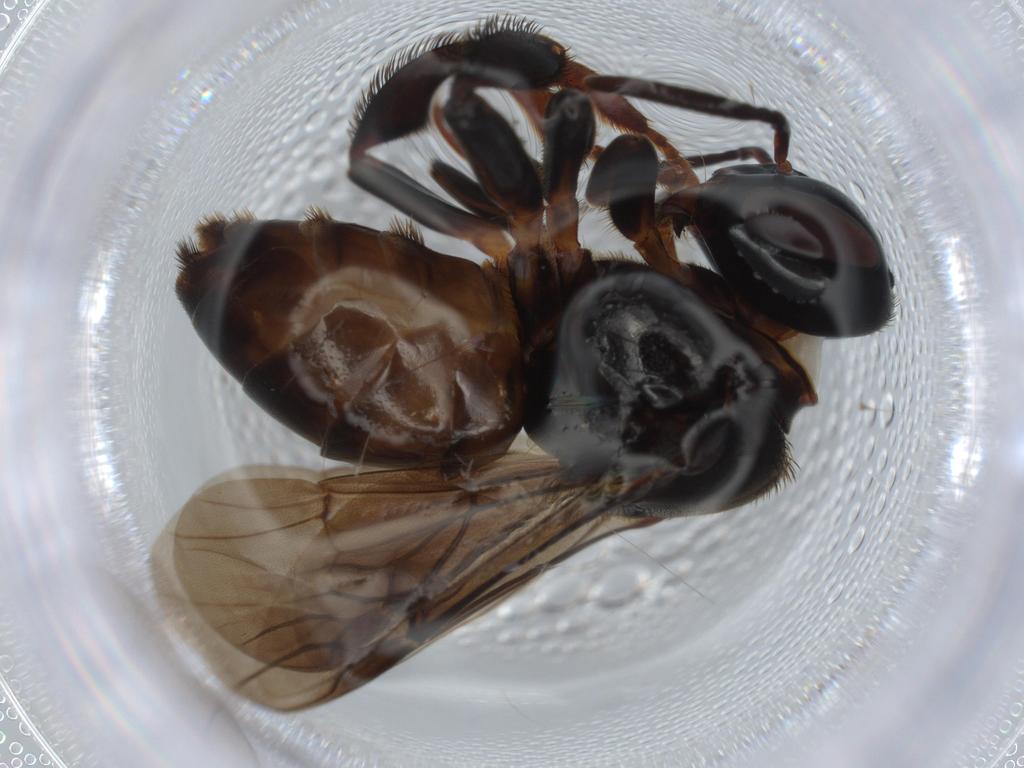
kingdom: Animalia
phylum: Arthropoda
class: Insecta
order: Hymenoptera
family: Apidae
